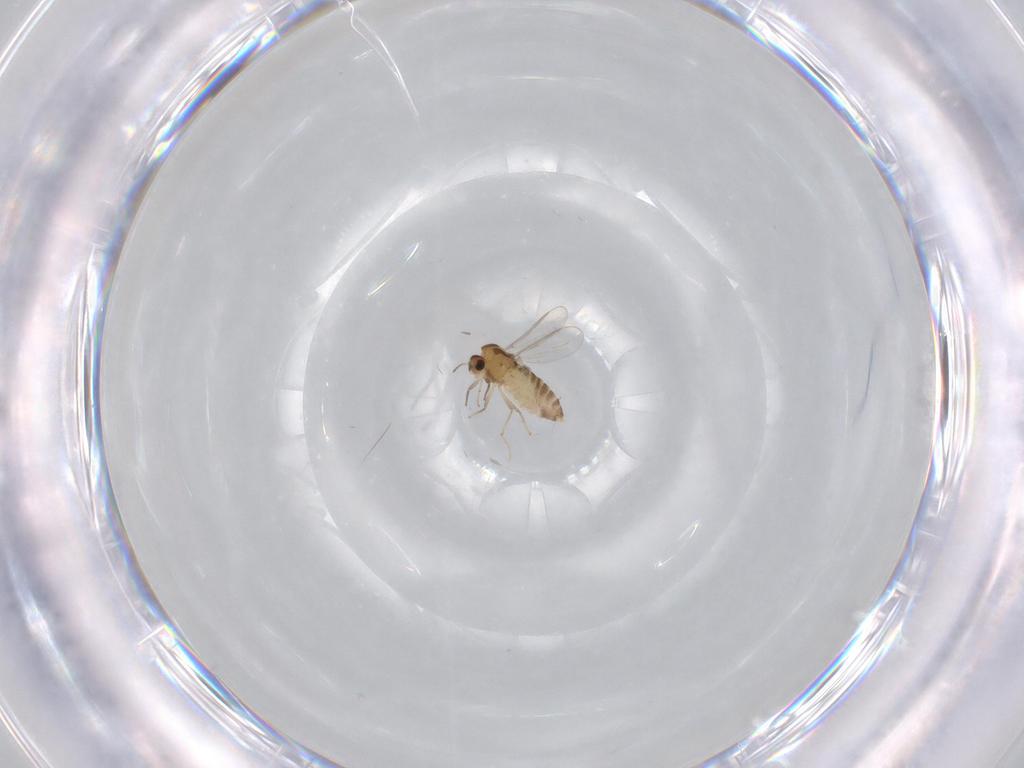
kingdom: Animalia
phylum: Arthropoda
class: Insecta
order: Diptera
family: Chironomidae
